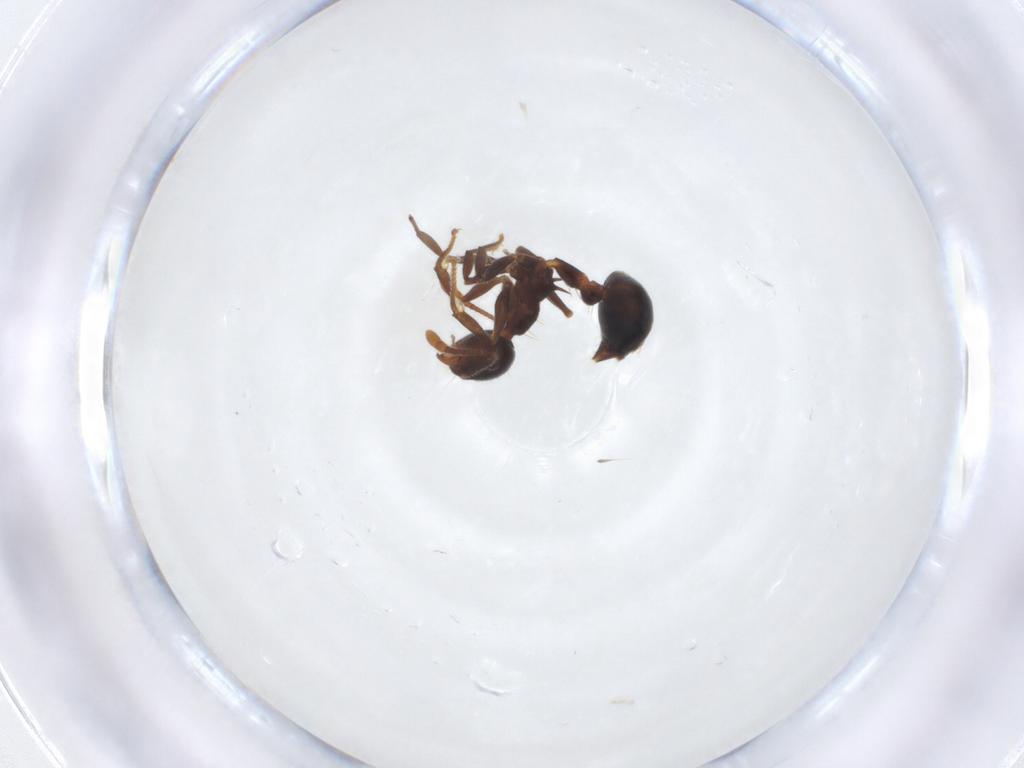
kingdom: Animalia
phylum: Arthropoda
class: Insecta
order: Hymenoptera
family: Formicidae
